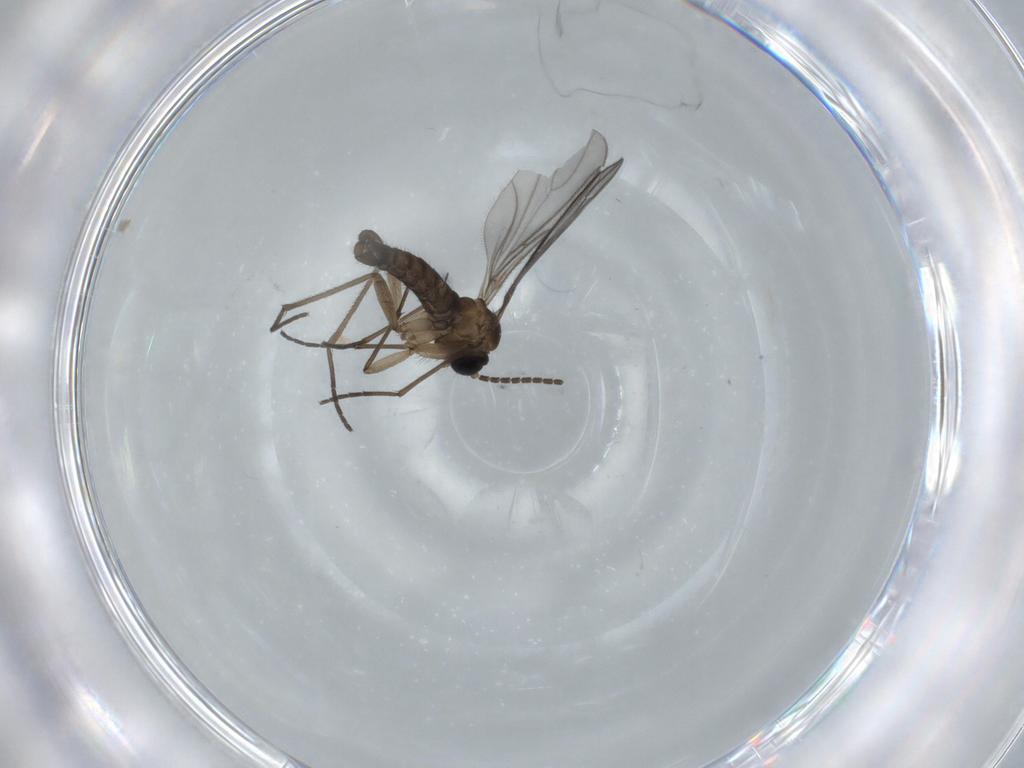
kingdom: Animalia
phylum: Arthropoda
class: Insecta
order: Diptera
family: Sciaridae
